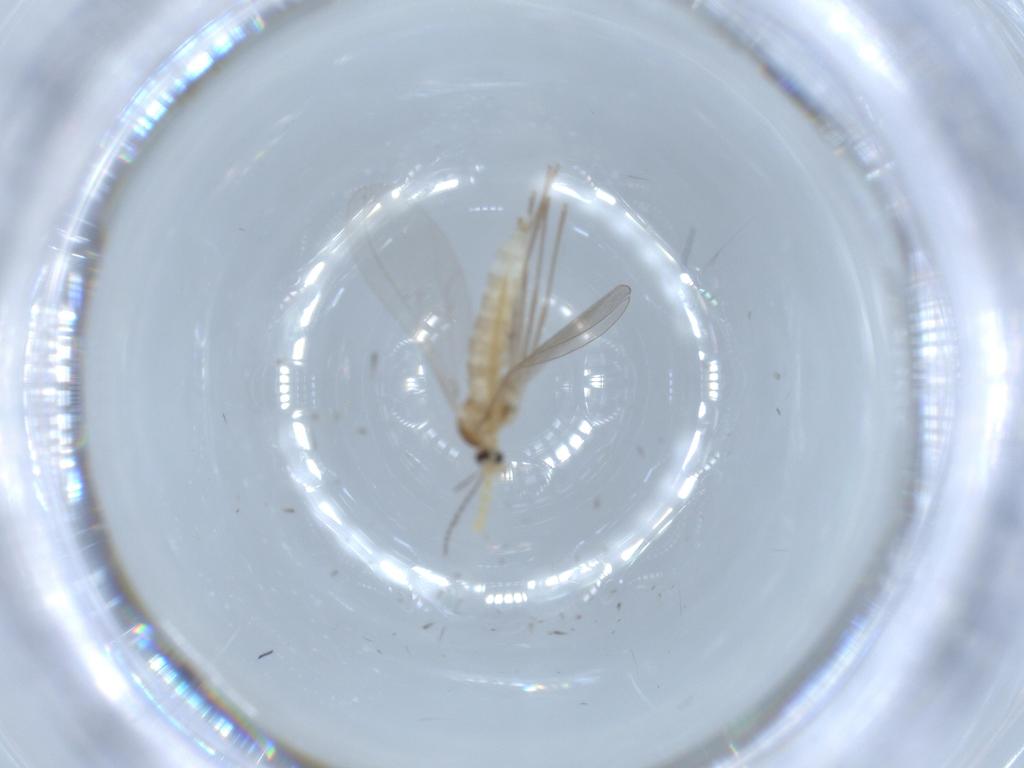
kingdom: Animalia
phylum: Arthropoda
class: Insecta
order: Diptera
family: Cecidomyiidae
